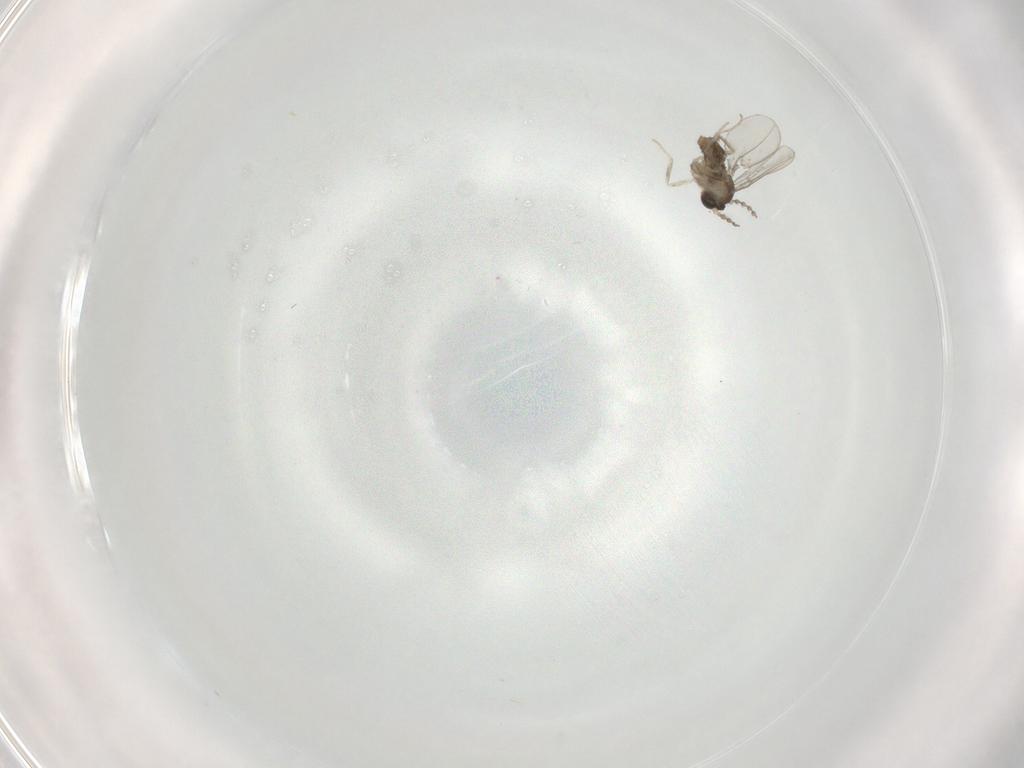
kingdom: Animalia
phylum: Arthropoda
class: Insecta
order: Diptera
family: Cecidomyiidae
